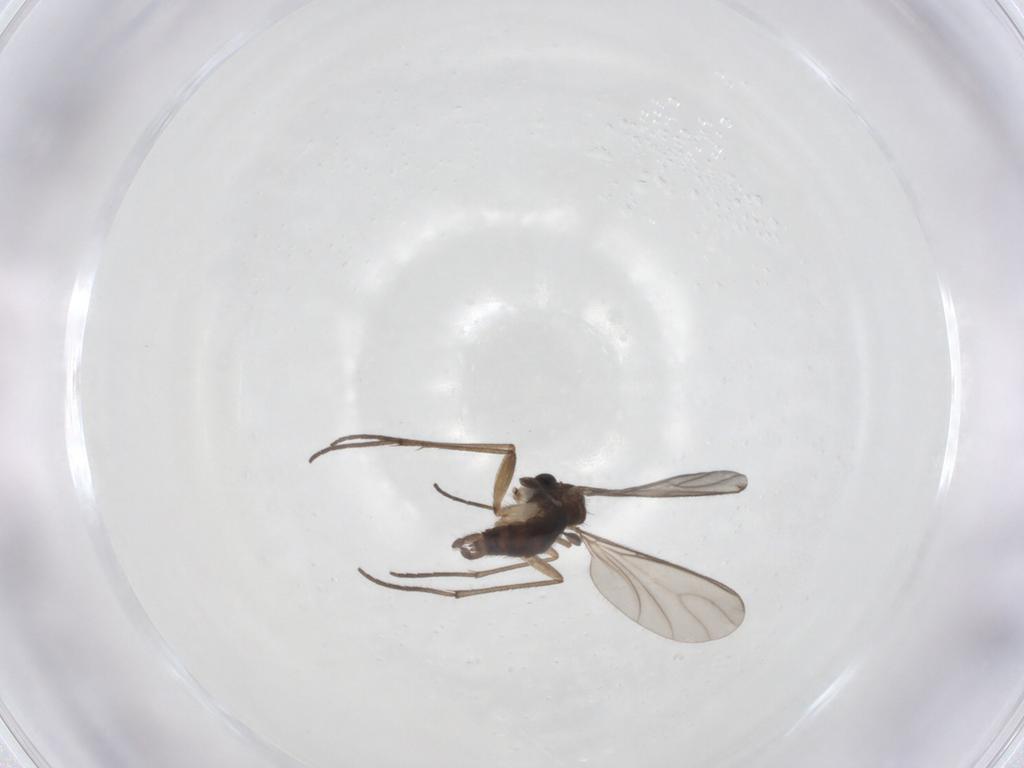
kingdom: Animalia
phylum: Arthropoda
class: Insecta
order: Diptera
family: Sciaridae
